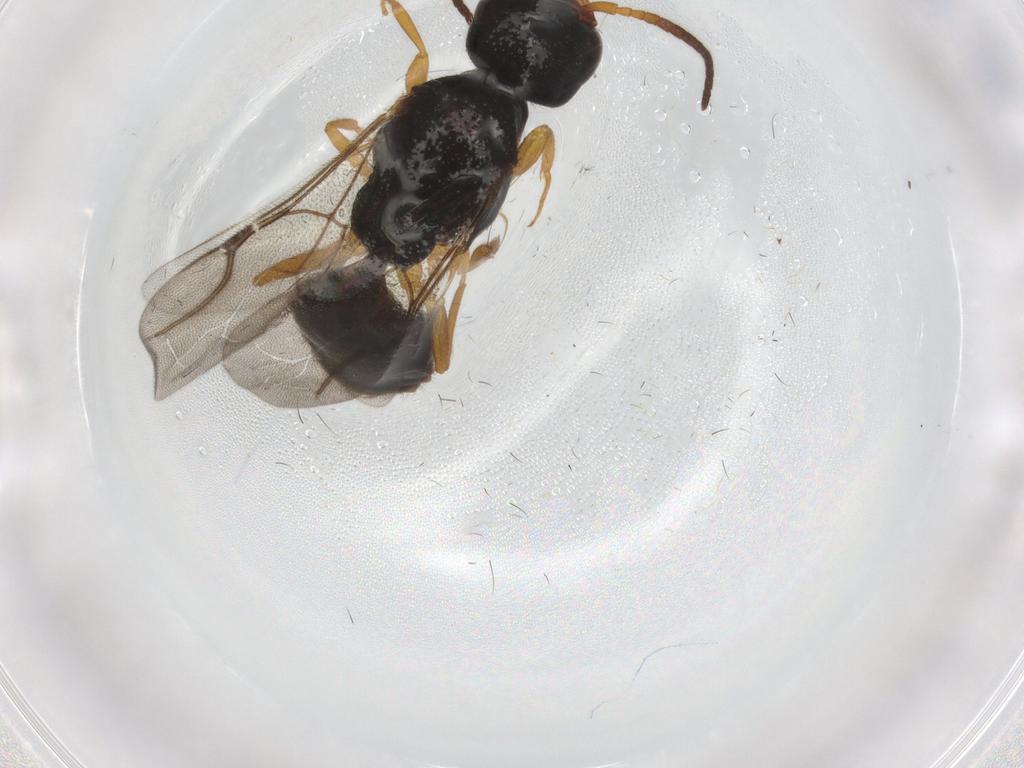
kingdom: Animalia
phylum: Arthropoda
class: Insecta
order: Hymenoptera
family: Bethylidae
